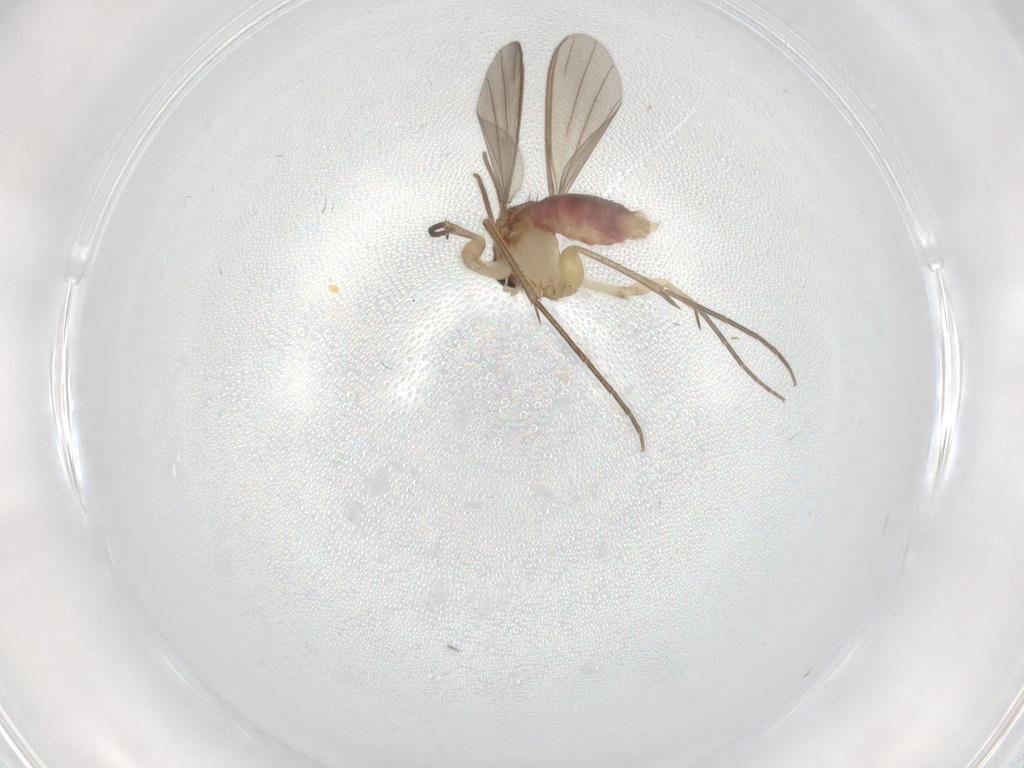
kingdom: Animalia
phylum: Arthropoda
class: Insecta
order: Diptera
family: Mycetophilidae
